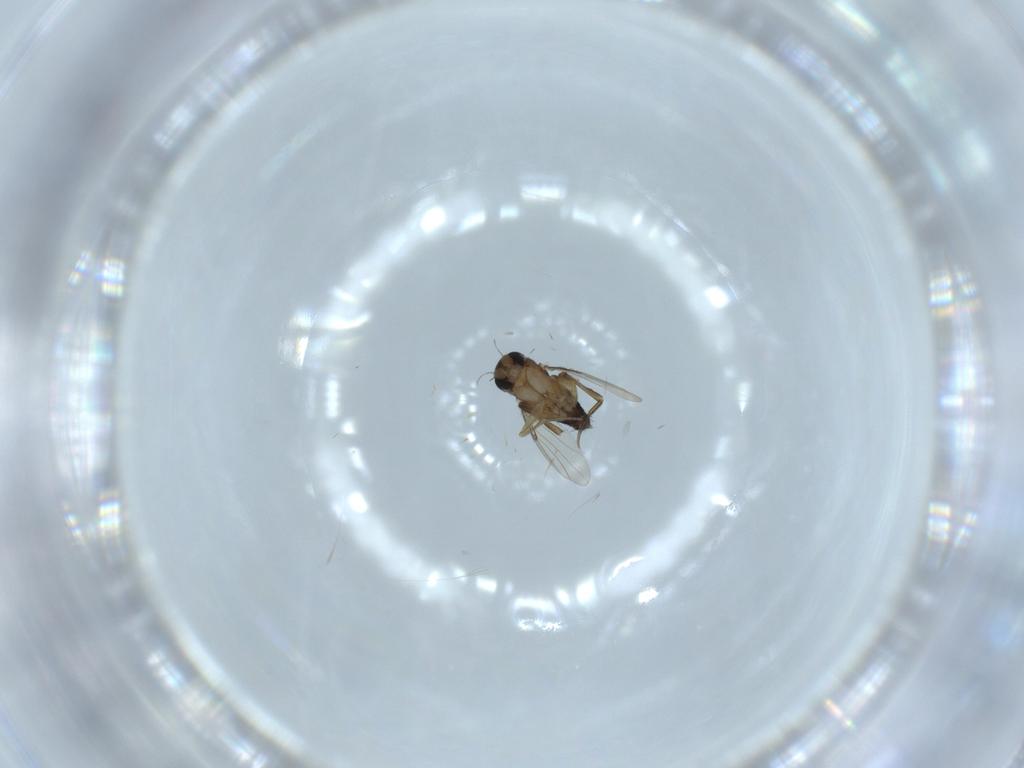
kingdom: Animalia
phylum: Arthropoda
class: Insecta
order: Diptera
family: Phoridae
